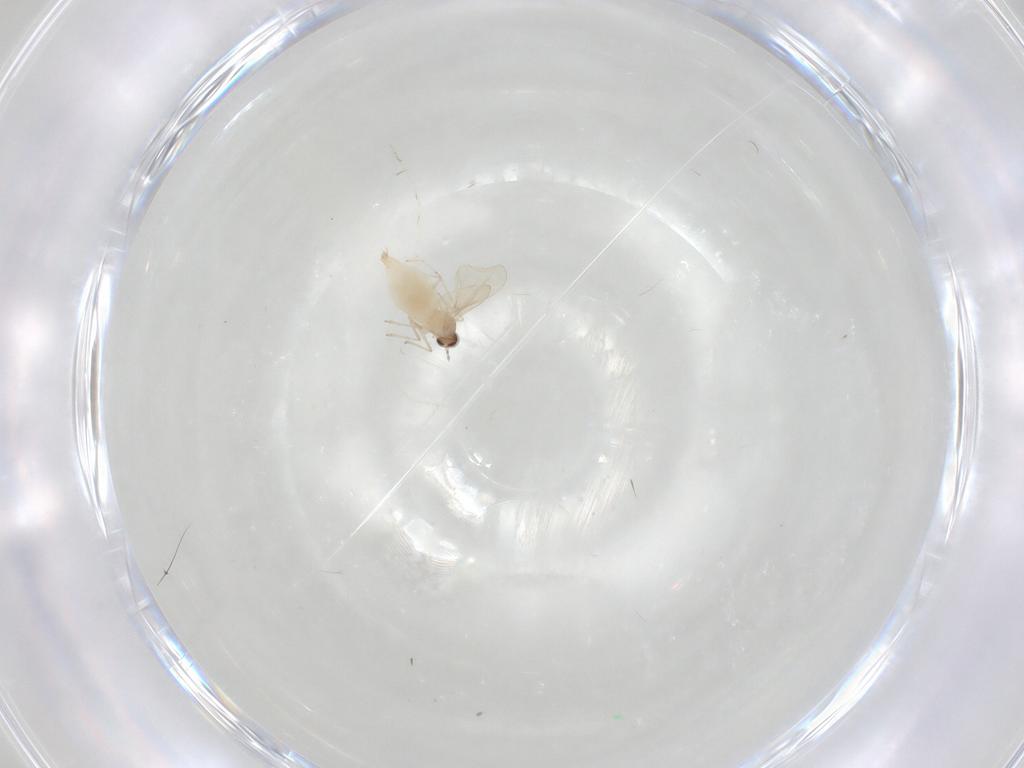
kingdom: Animalia
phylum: Arthropoda
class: Insecta
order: Diptera
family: Phoridae
